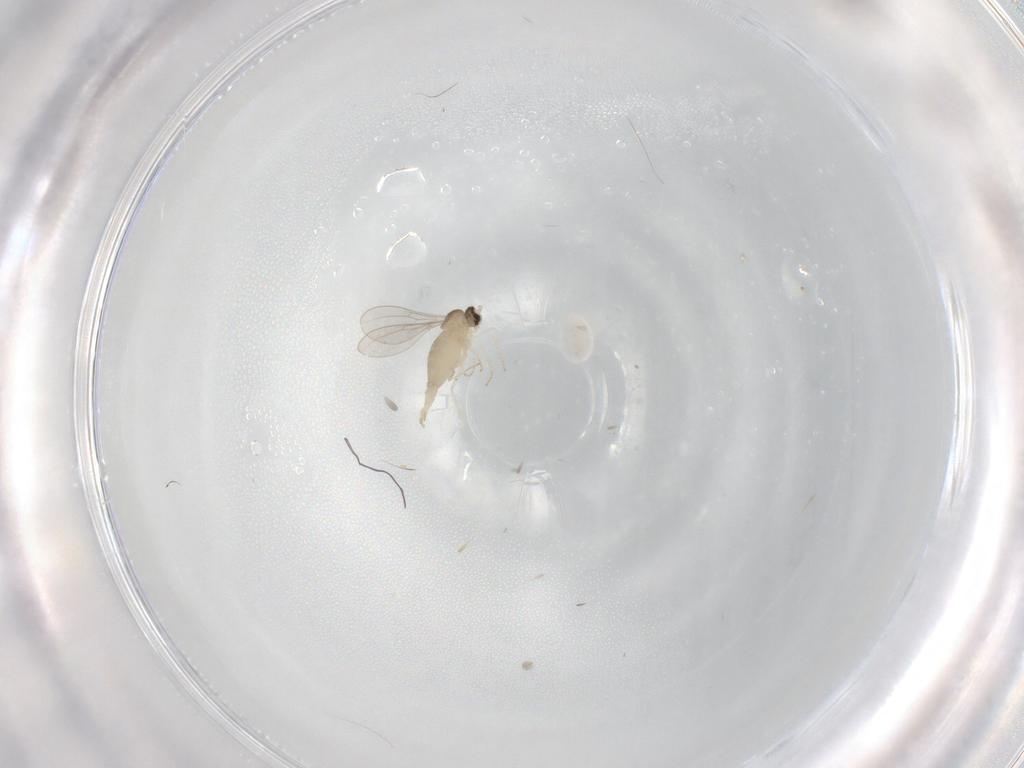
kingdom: Animalia
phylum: Arthropoda
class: Insecta
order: Diptera
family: Cecidomyiidae
